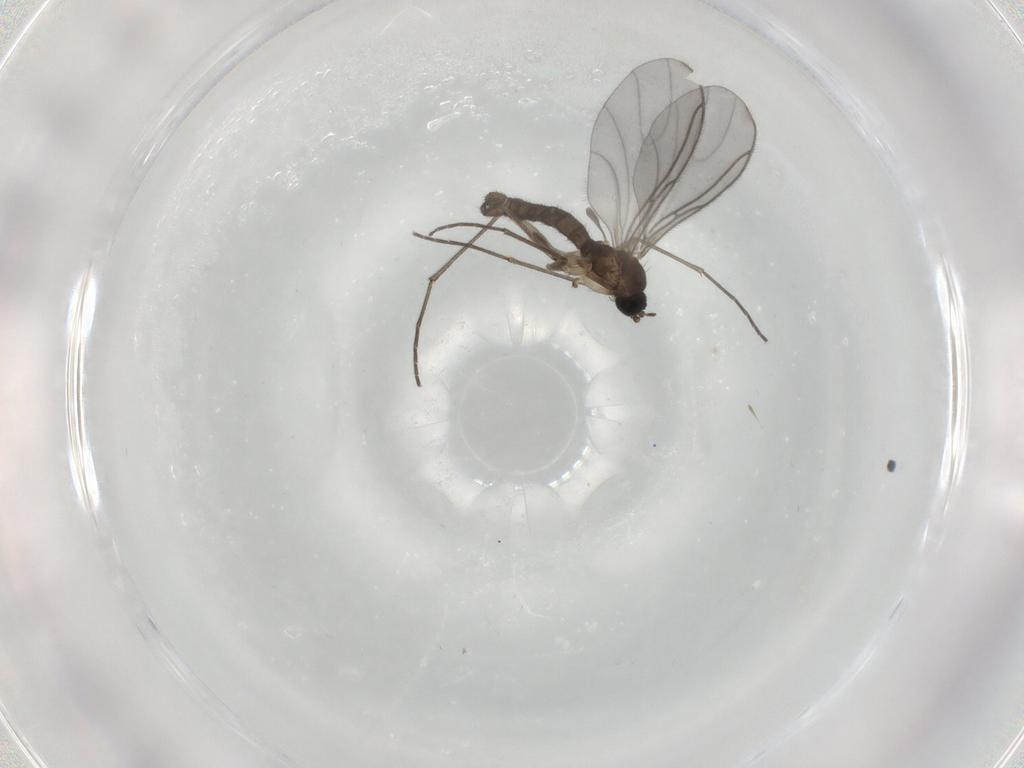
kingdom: Animalia
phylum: Arthropoda
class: Insecta
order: Diptera
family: Sciaridae
